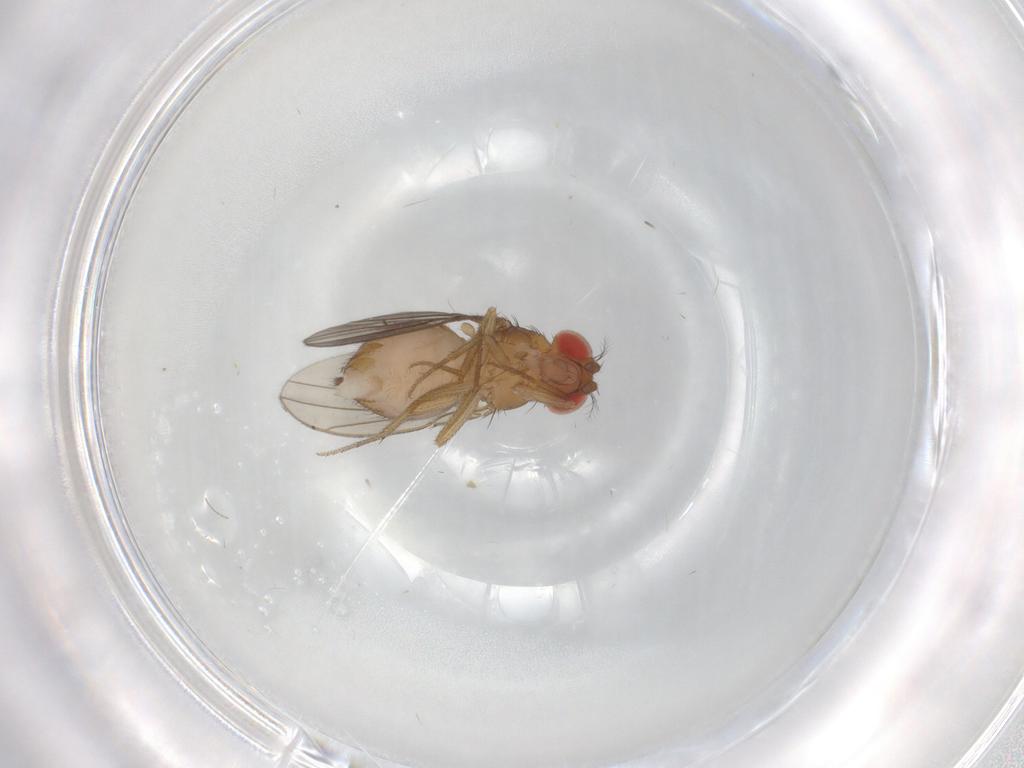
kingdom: Animalia
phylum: Arthropoda
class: Insecta
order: Diptera
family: Drosophilidae
